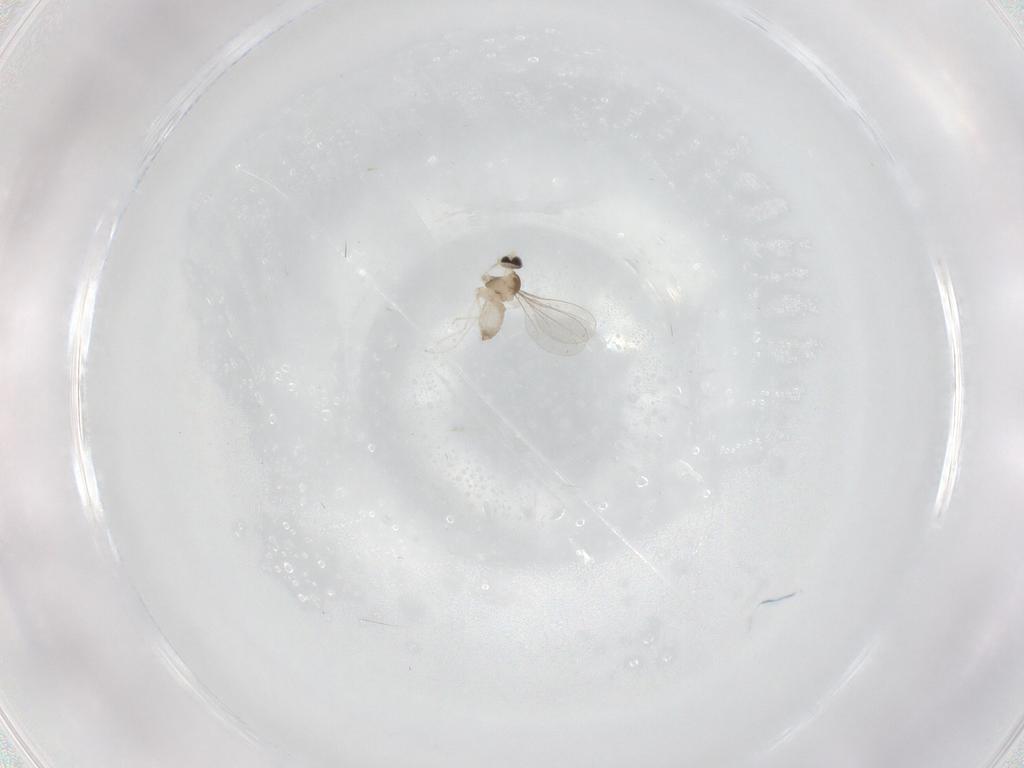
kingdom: Animalia
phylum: Arthropoda
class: Insecta
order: Diptera
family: Cecidomyiidae
